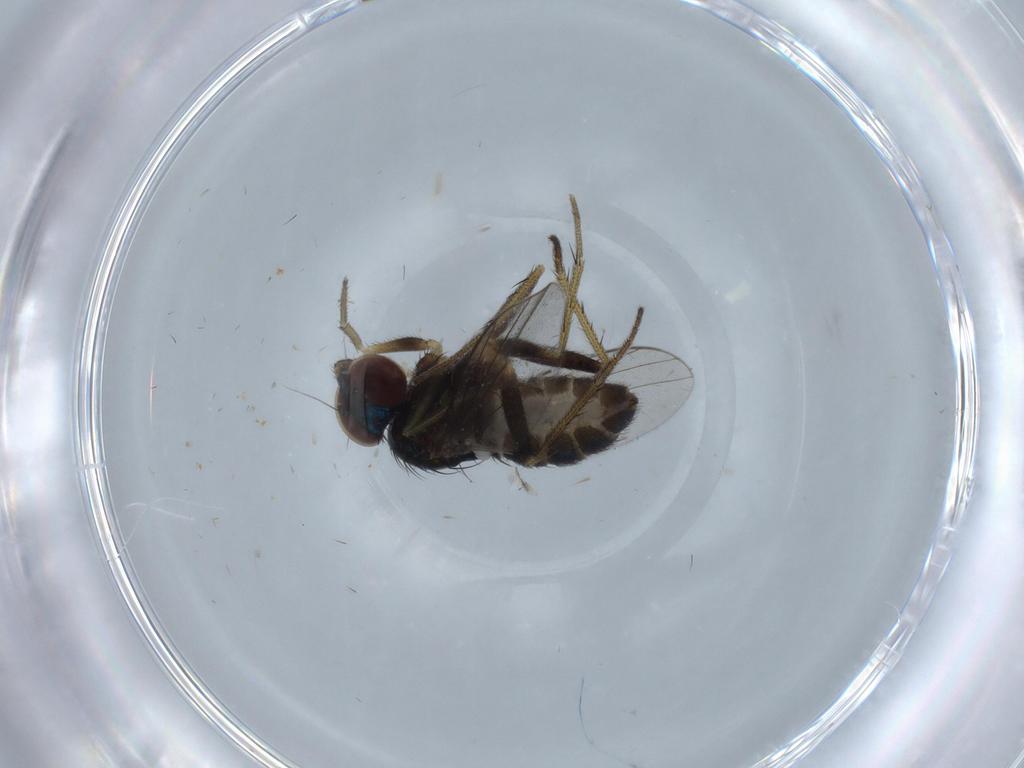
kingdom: Animalia
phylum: Arthropoda
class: Insecta
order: Diptera
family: Dolichopodidae
